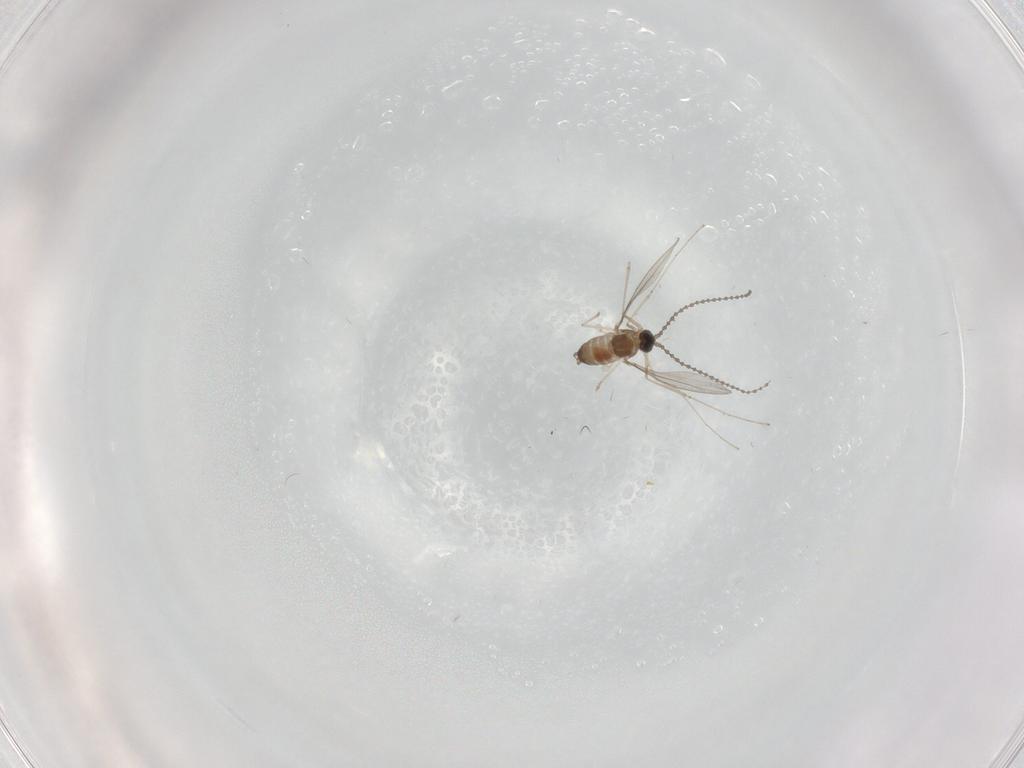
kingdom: Animalia
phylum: Arthropoda
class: Insecta
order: Diptera
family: Cecidomyiidae
